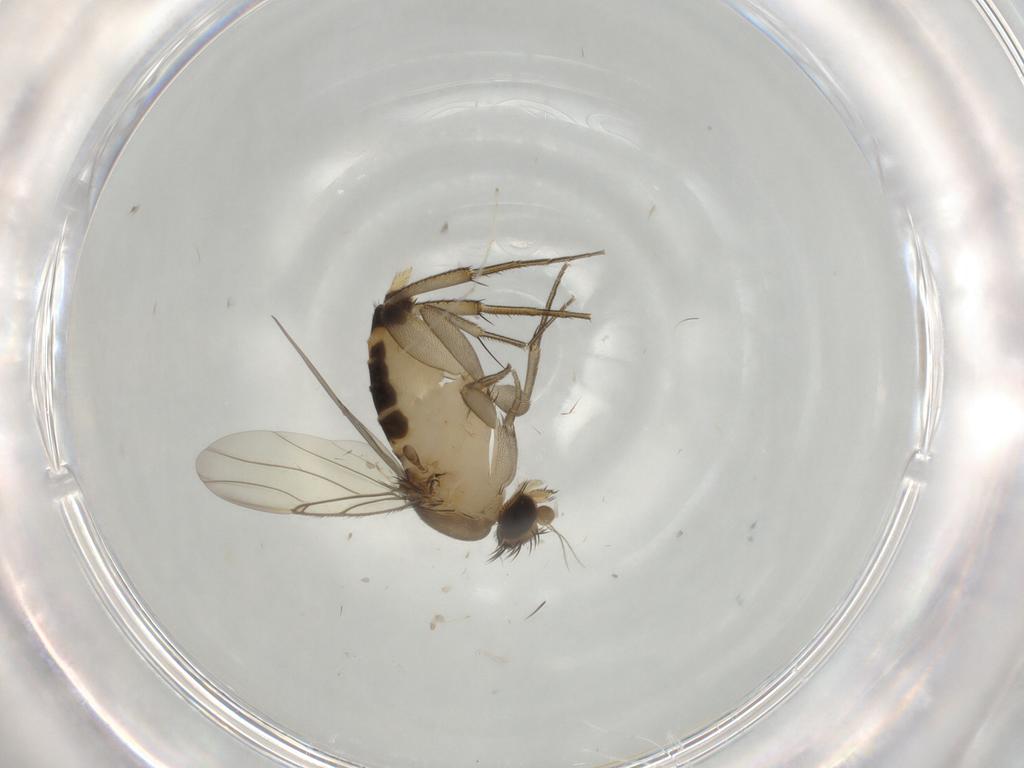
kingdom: Animalia
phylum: Arthropoda
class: Insecta
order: Diptera
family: Phoridae
